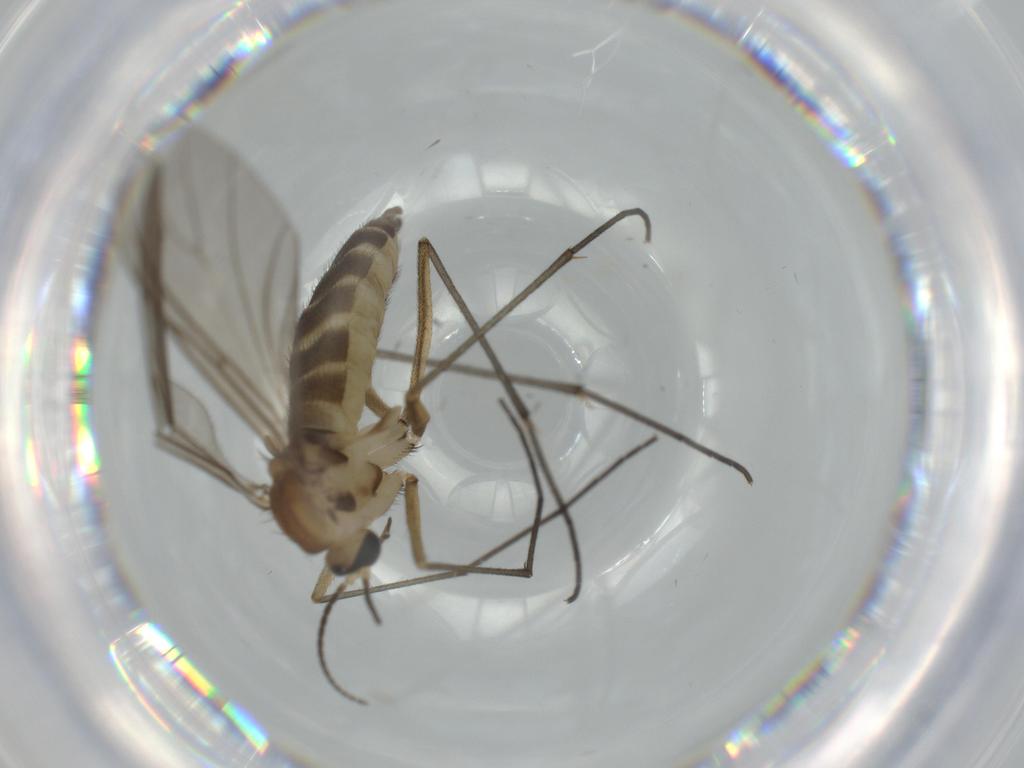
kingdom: Animalia
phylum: Arthropoda
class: Insecta
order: Diptera
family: Sciaridae
